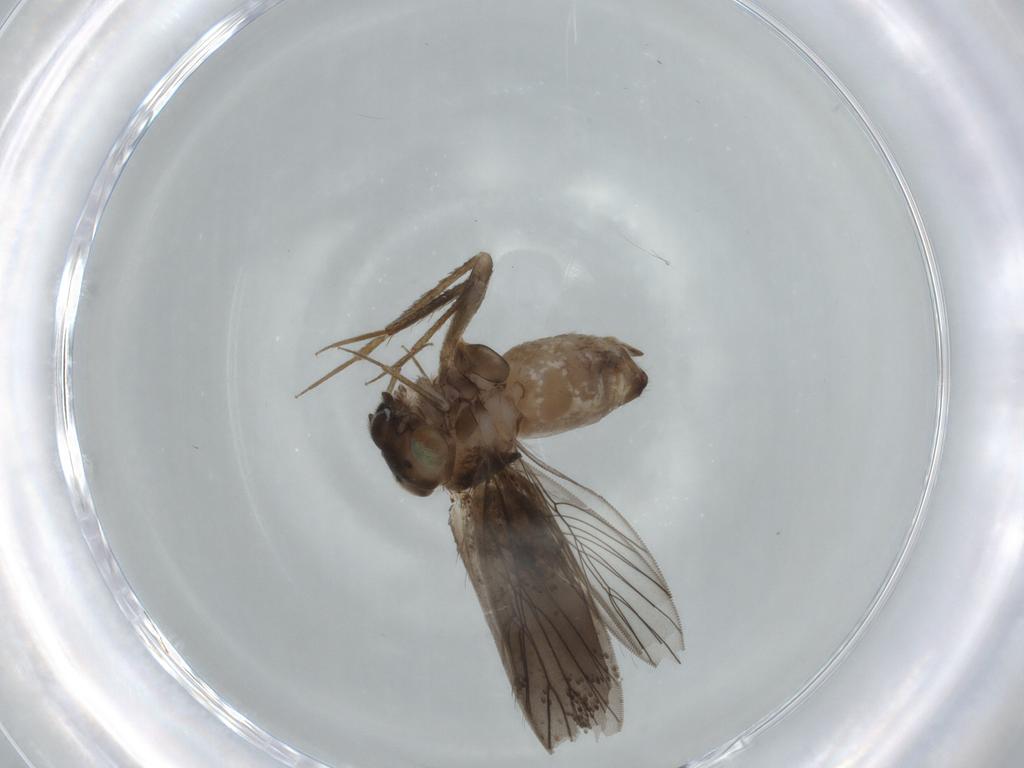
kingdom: Animalia
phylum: Arthropoda
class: Insecta
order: Psocodea
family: Lepidopsocidae
